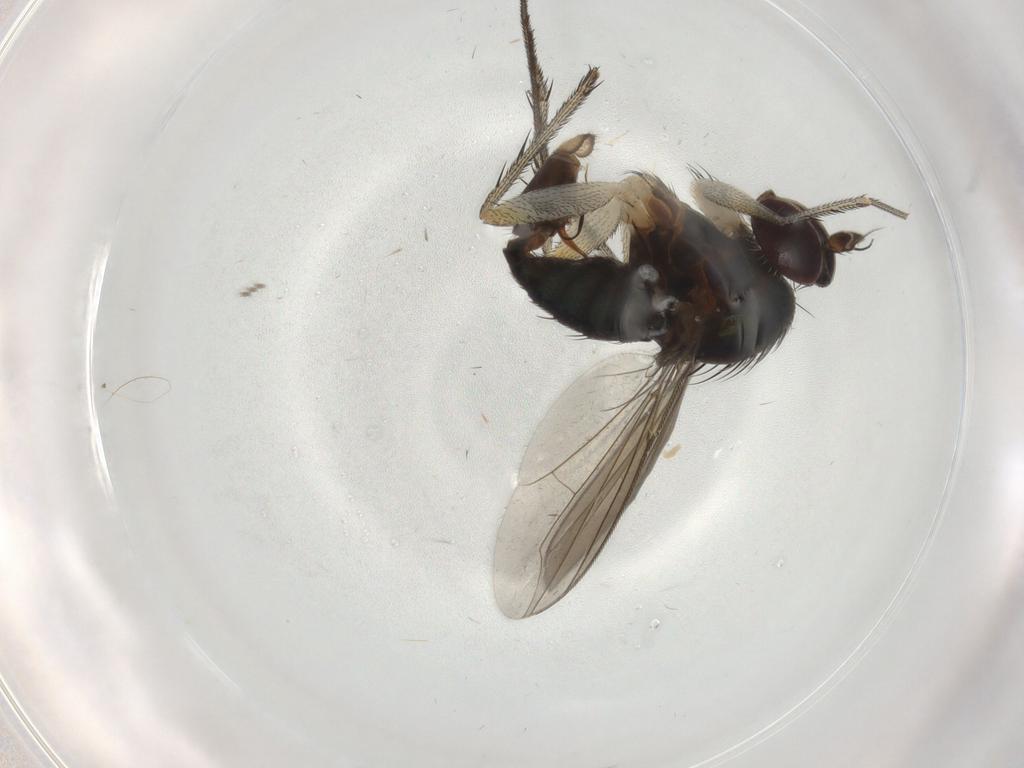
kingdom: Animalia
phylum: Arthropoda
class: Insecta
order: Diptera
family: Dolichopodidae
